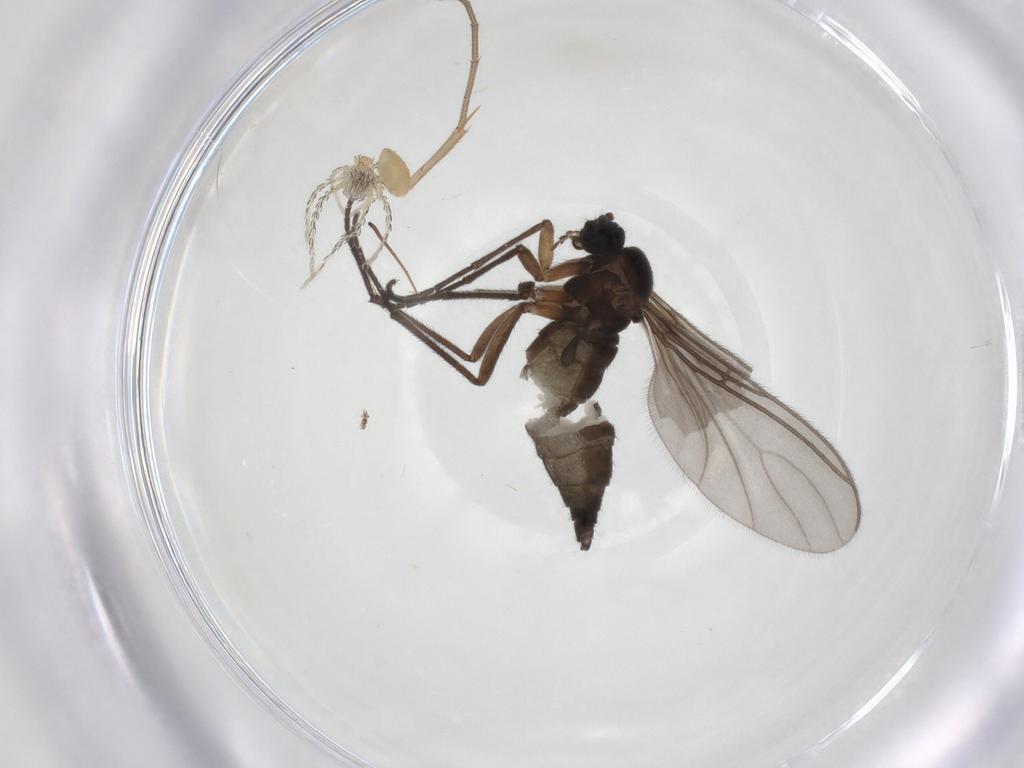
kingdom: Animalia
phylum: Arthropoda
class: Insecta
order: Diptera
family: Mycetophilidae
